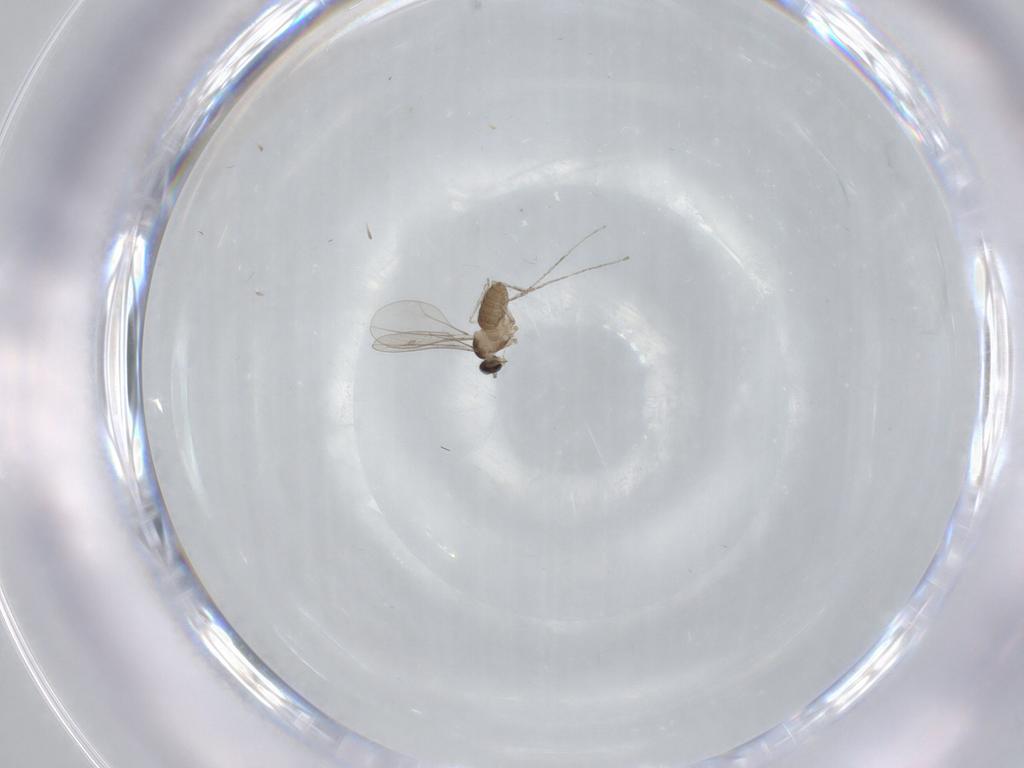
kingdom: Animalia
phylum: Arthropoda
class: Insecta
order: Diptera
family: Cecidomyiidae
